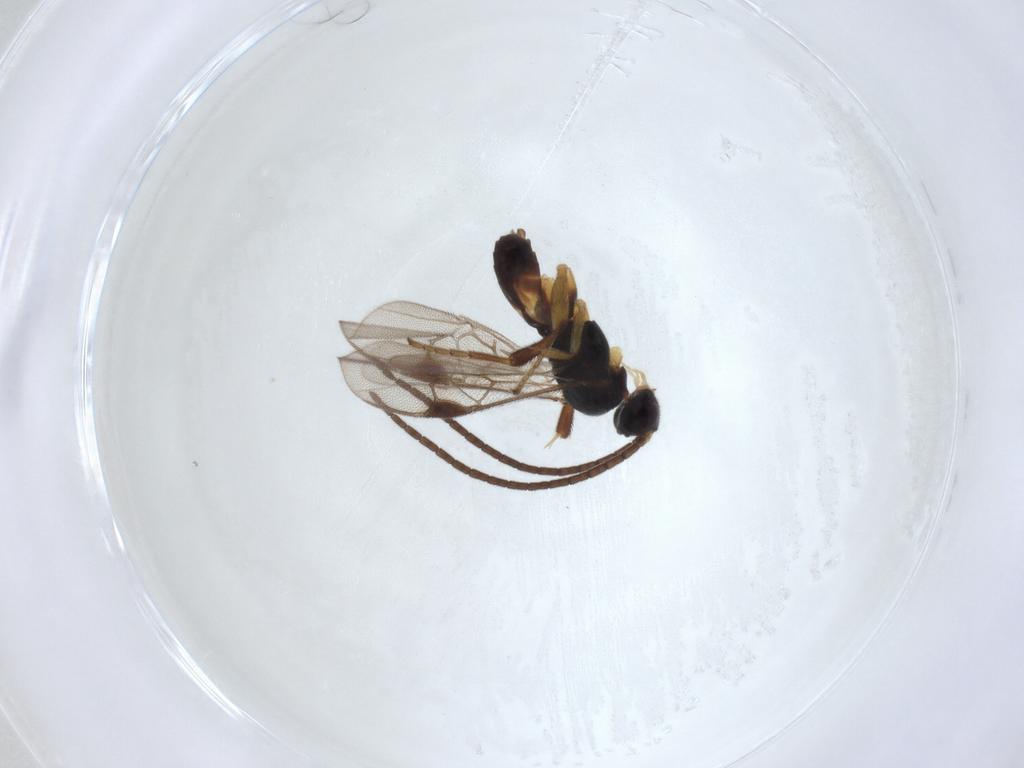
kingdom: Animalia
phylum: Arthropoda
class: Insecta
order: Hymenoptera
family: Braconidae
